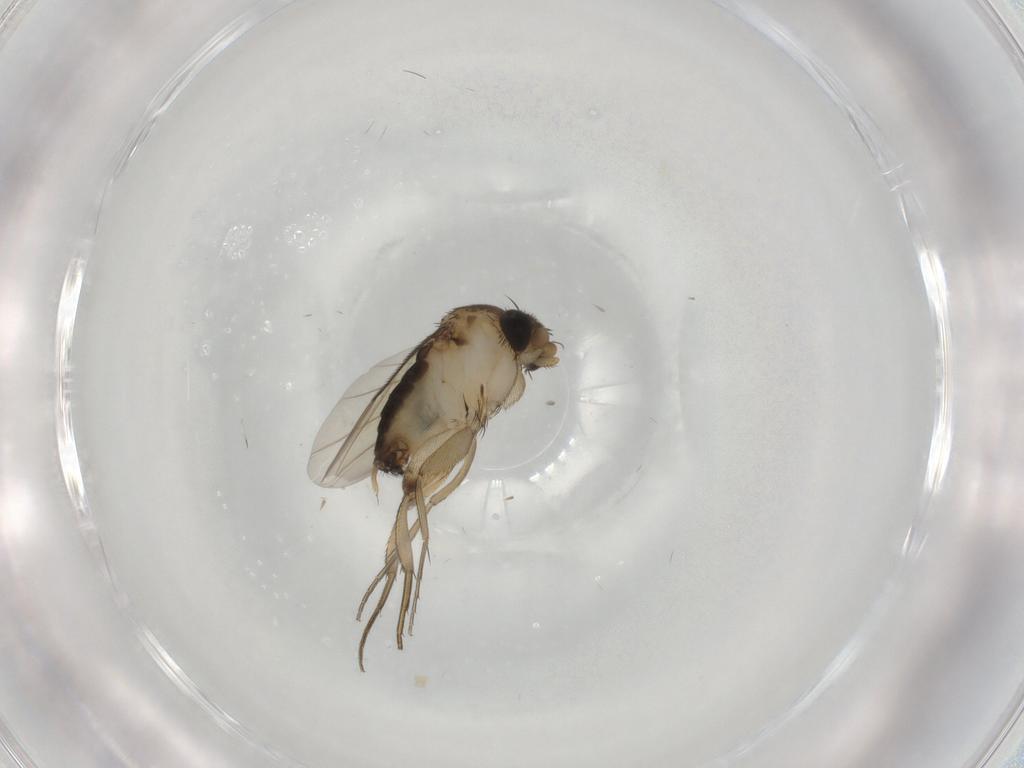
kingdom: Animalia
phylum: Arthropoda
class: Insecta
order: Diptera
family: Phoridae
